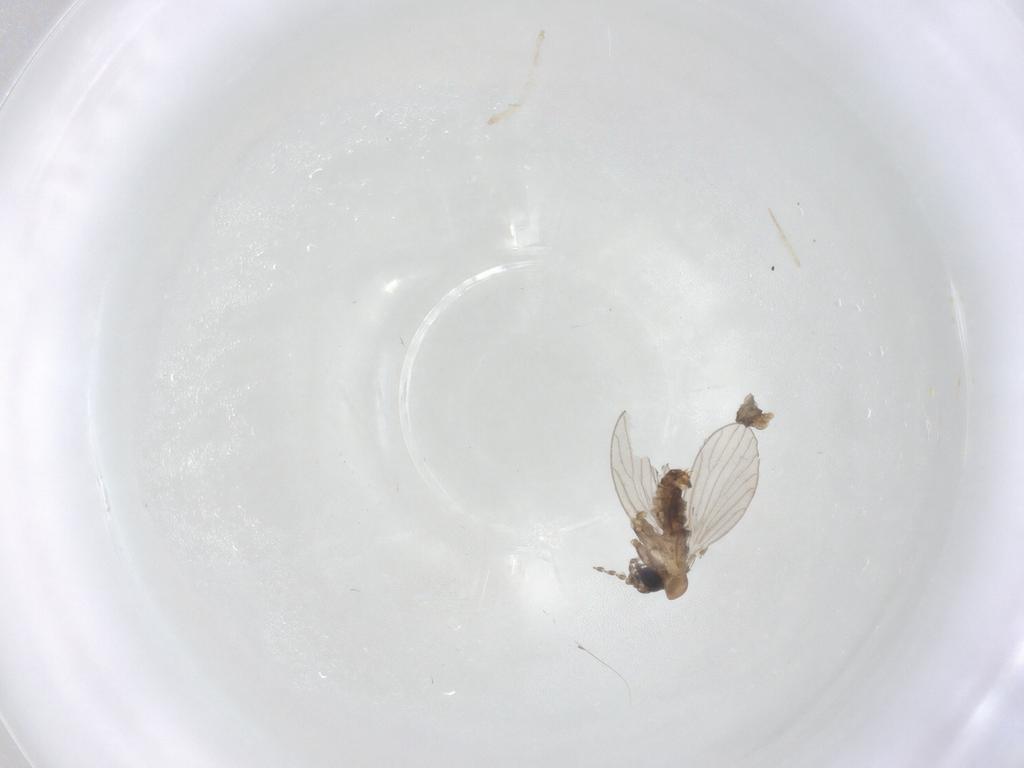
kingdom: Animalia
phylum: Arthropoda
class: Insecta
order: Diptera
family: Cecidomyiidae
